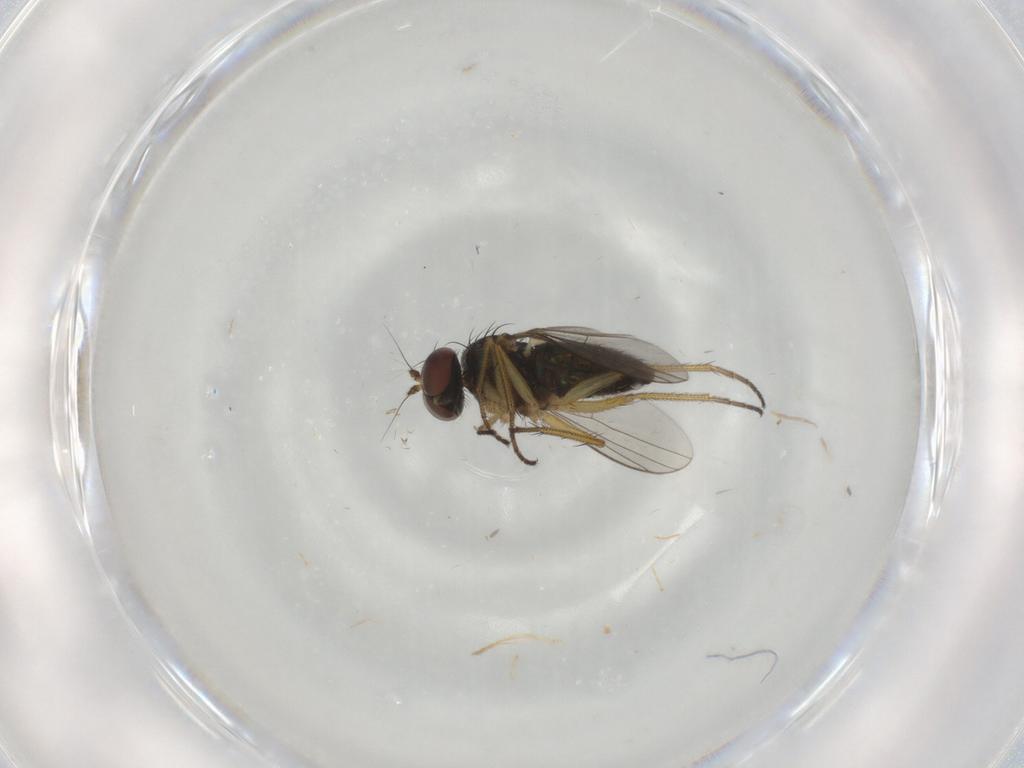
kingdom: Animalia
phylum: Arthropoda
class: Insecta
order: Diptera
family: Dolichopodidae
